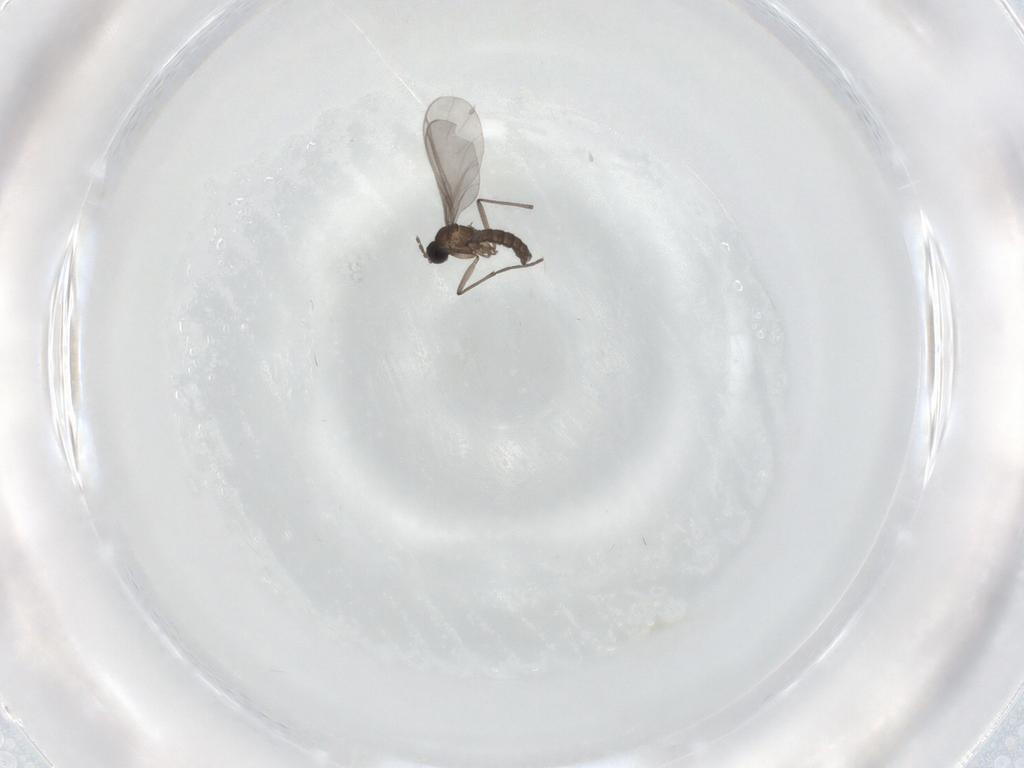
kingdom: Animalia
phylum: Arthropoda
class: Insecta
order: Diptera
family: Sciaridae
